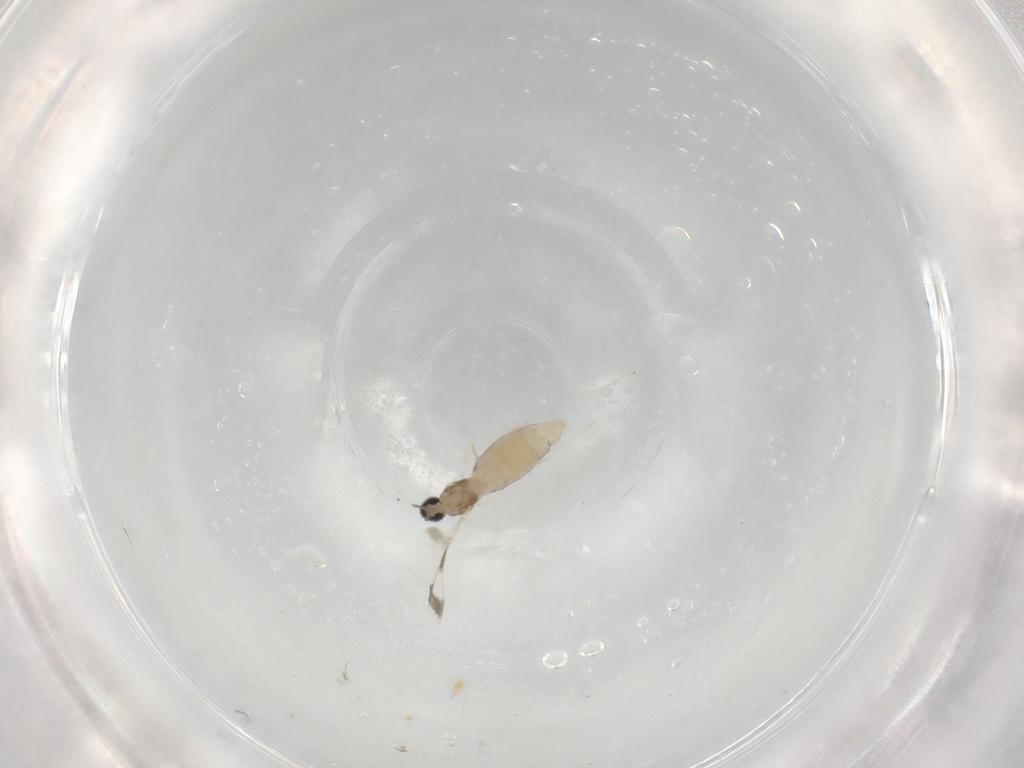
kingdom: Animalia
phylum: Arthropoda
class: Insecta
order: Diptera
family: Cecidomyiidae
